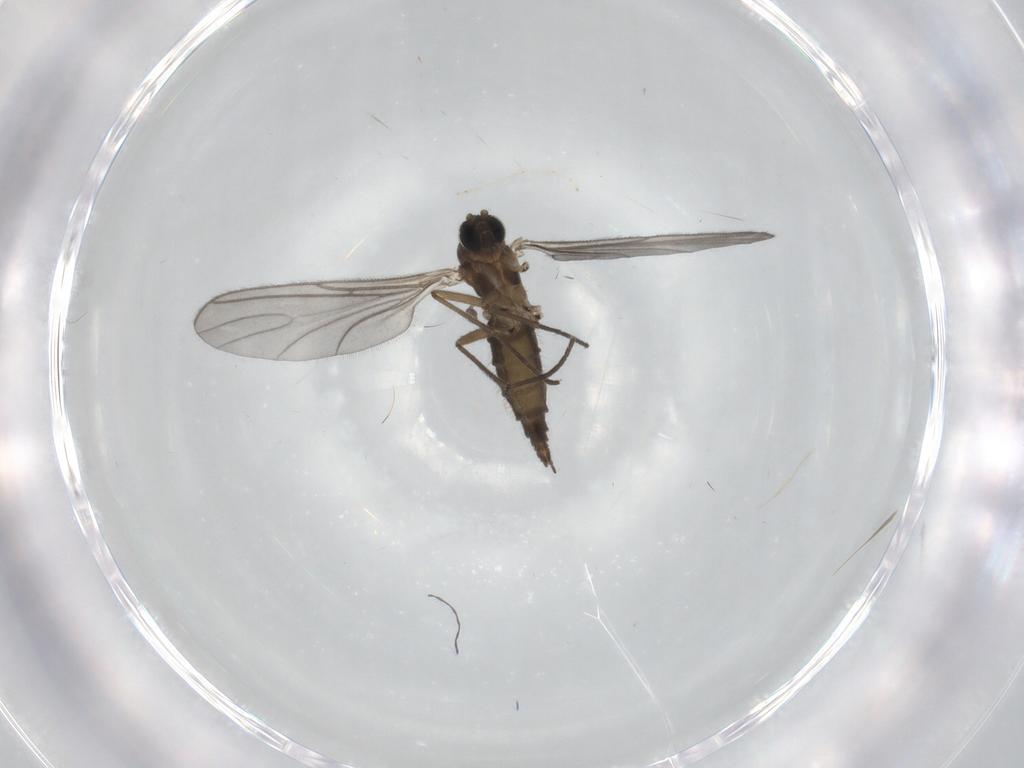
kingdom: Animalia
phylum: Arthropoda
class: Insecta
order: Diptera
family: Sciaridae
